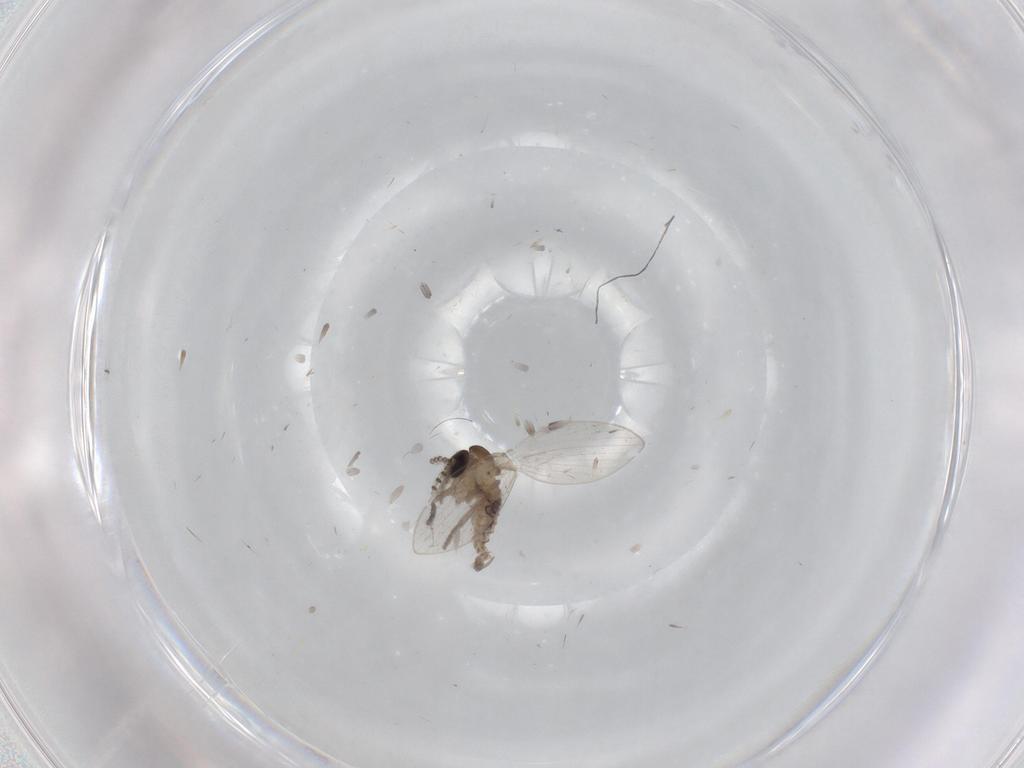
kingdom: Animalia
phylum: Arthropoda
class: Insecta
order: Diptera
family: Psychodidae
